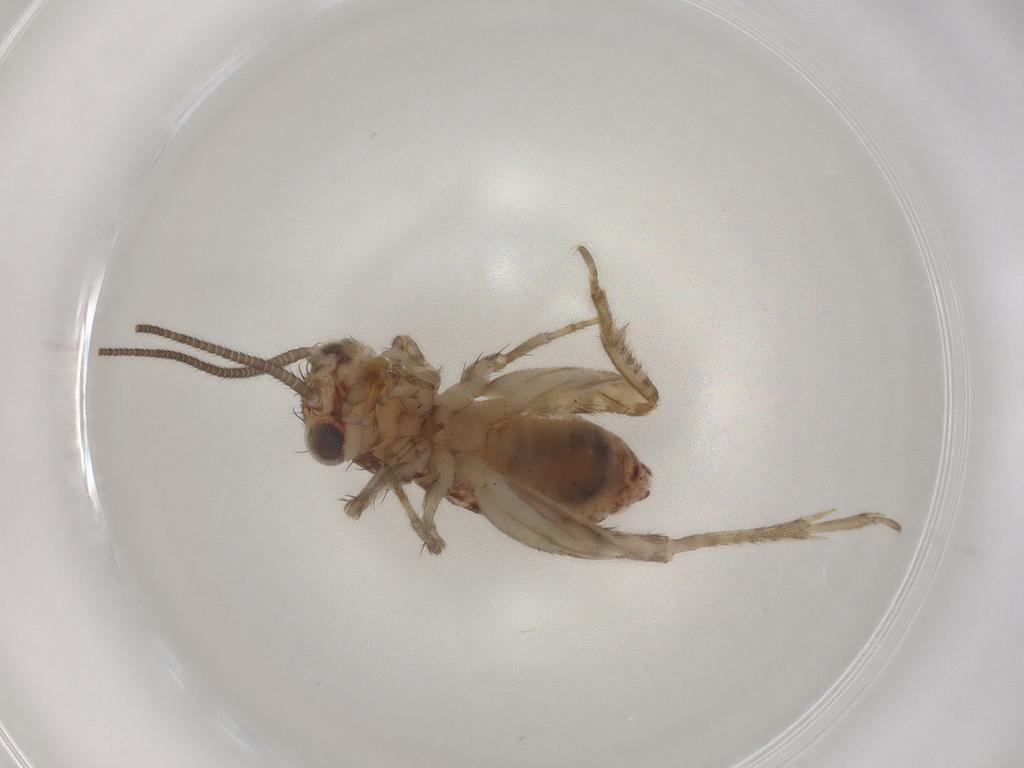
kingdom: Animalia
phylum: Arthropoda
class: Insecta
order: Orthoptera
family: Gryllidae
